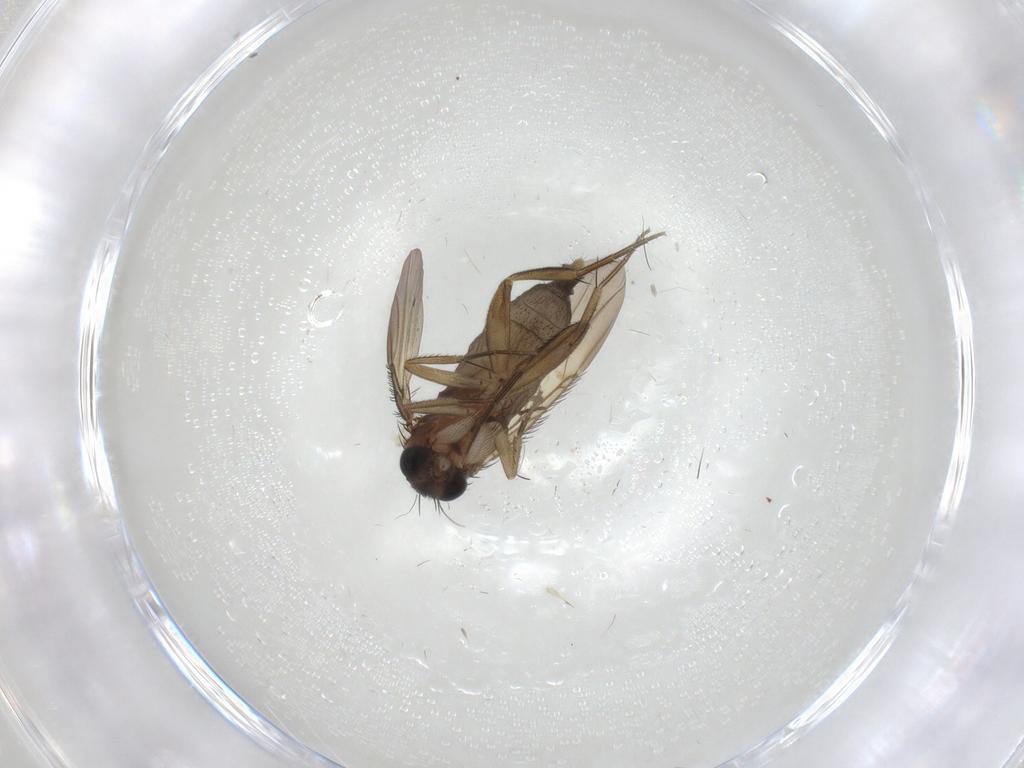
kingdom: Animalia
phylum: Arthropoda
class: Insecta
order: Diptera
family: Phoridae
